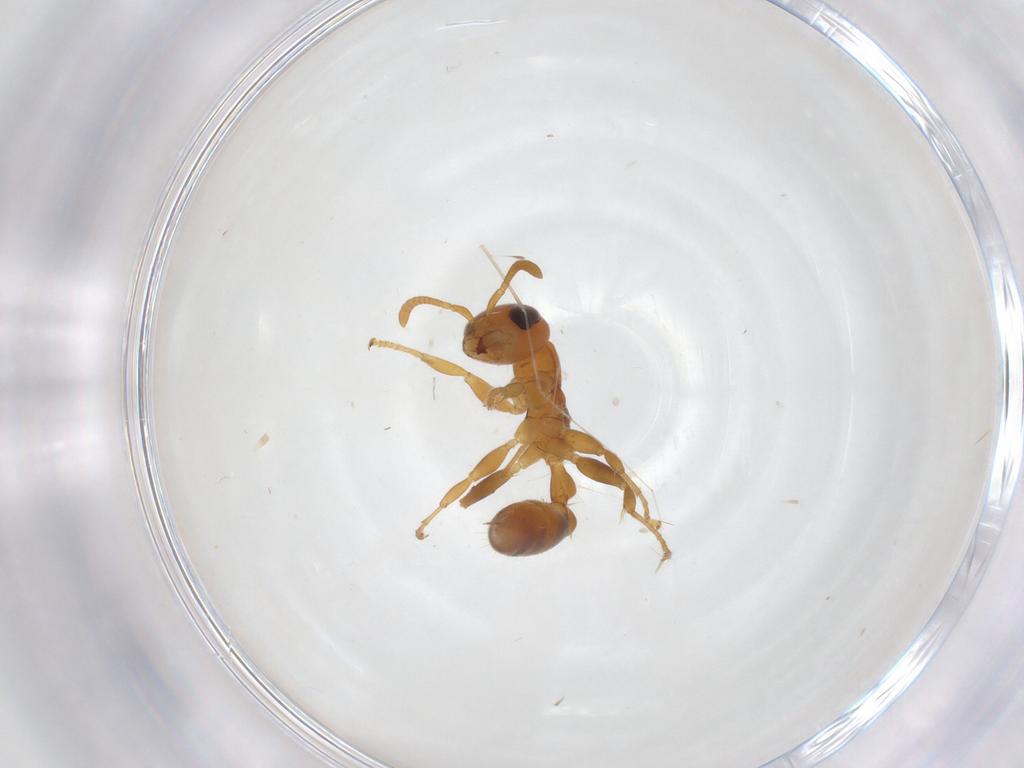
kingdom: Animalia
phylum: Arthropoda
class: Insecta
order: Hymenoptera
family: Formicidae
